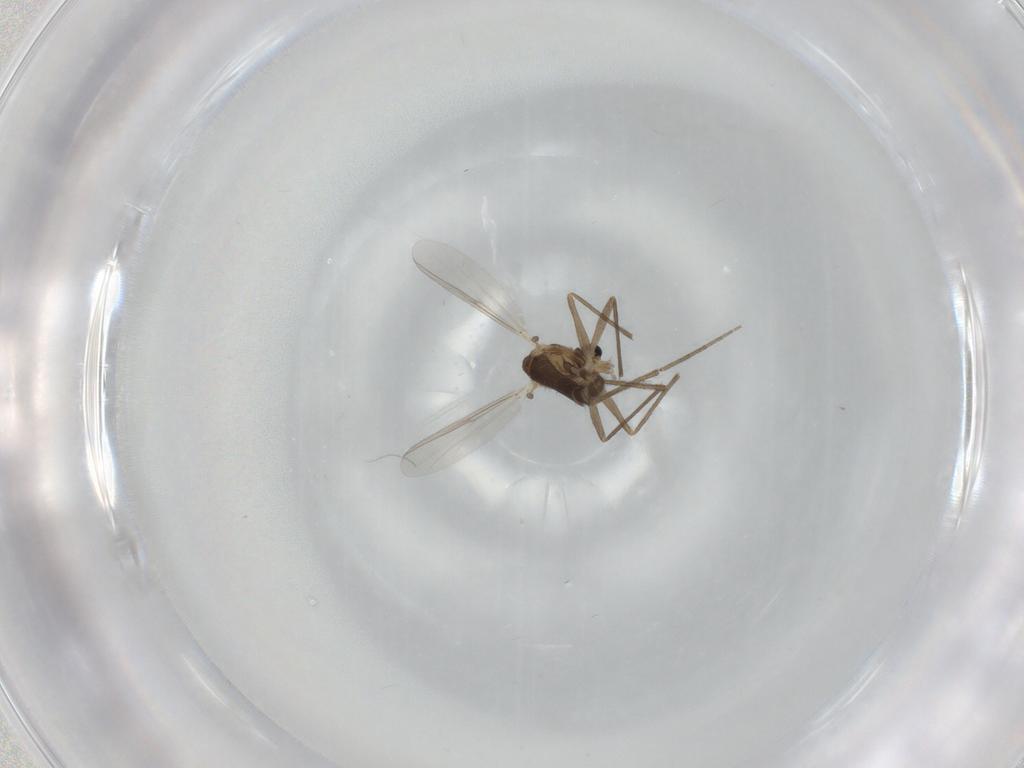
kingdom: Animalia
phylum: Arthropoda
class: Insecta
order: Diptera
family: Chironomidae
